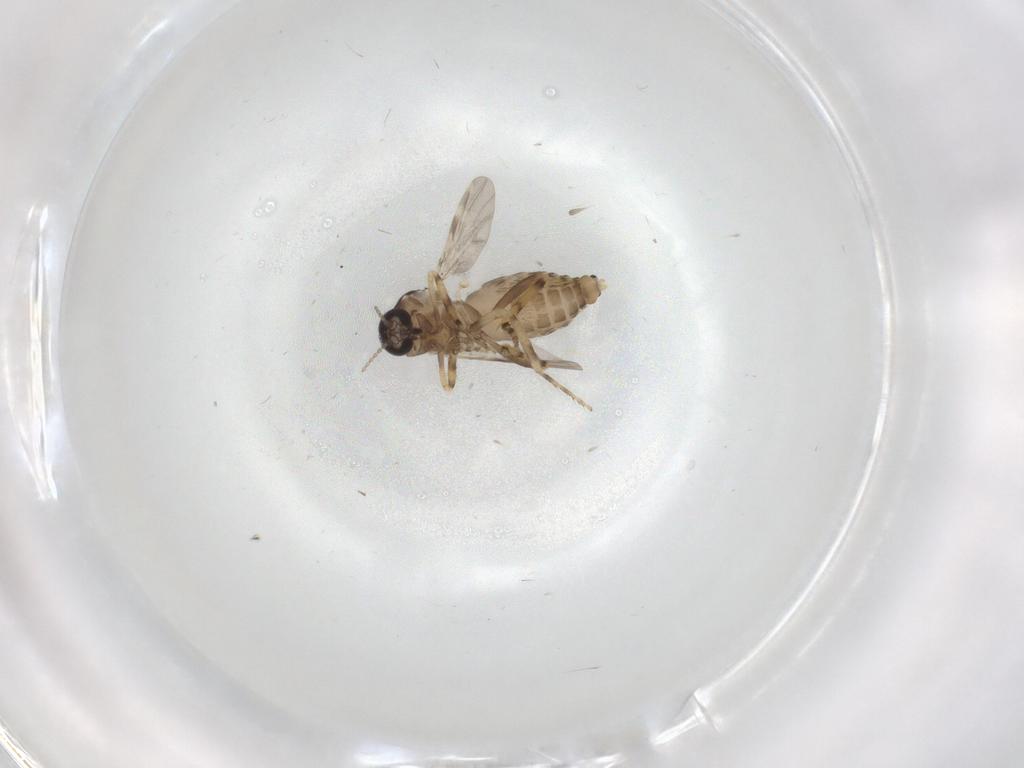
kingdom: Animalia
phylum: Arthropoda
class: Insecta
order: Diptera
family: Ceratopogonidae
